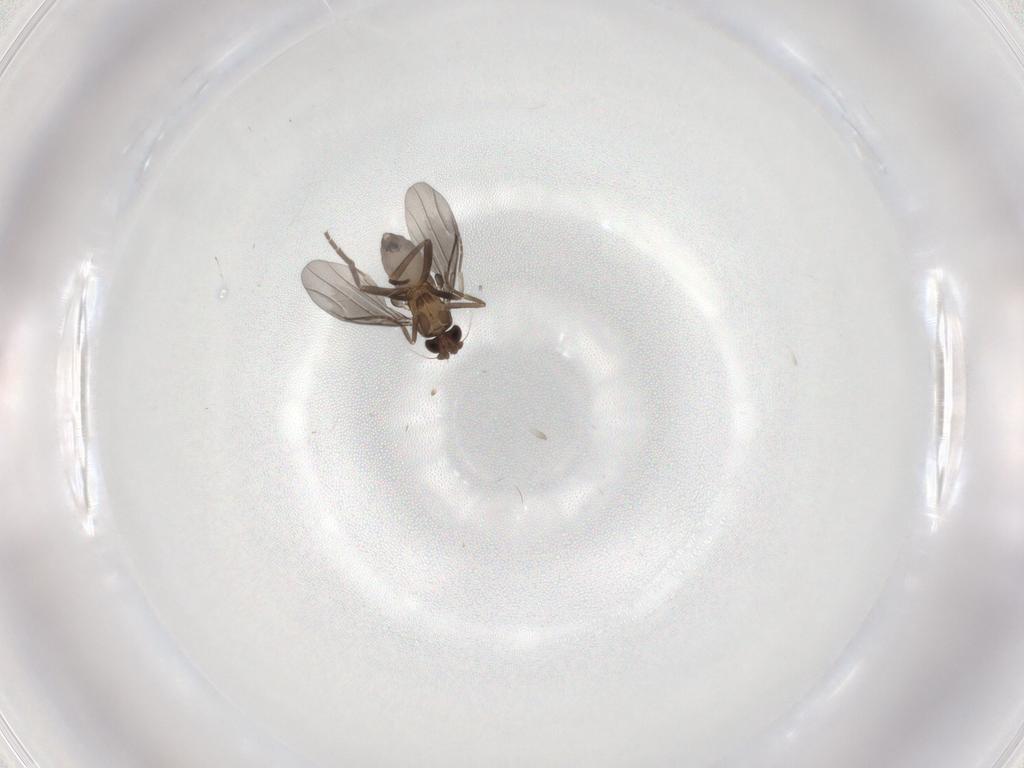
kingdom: Animalia
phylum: Arthropoda
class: Insecta
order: Diptera
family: Phoridae
